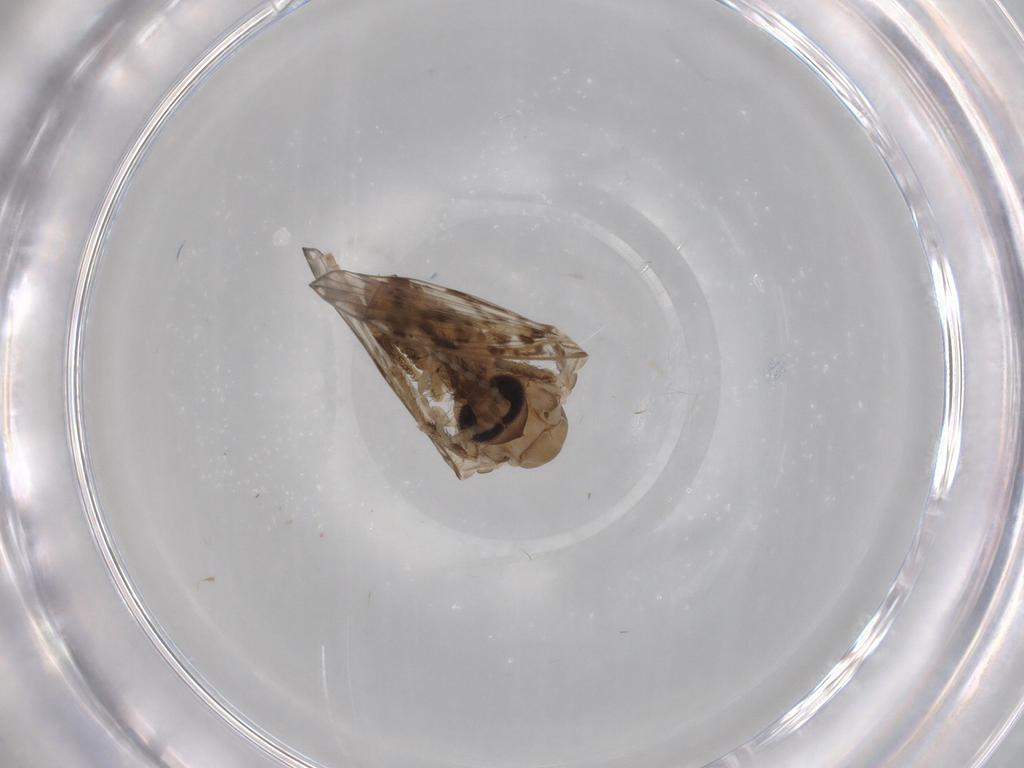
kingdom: Animalia
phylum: Arthropoda
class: Insecta
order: Diptera
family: Psychodidae
